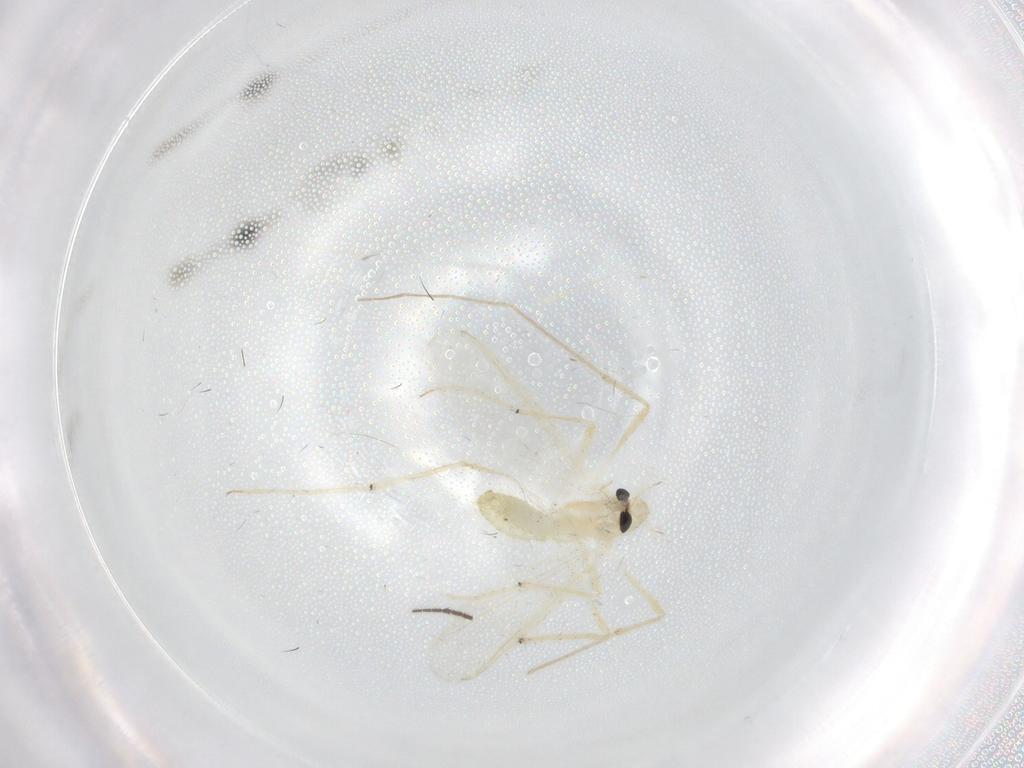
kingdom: Animalia
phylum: Arthropoda
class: Insecta
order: Diptera
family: Chironomidae
